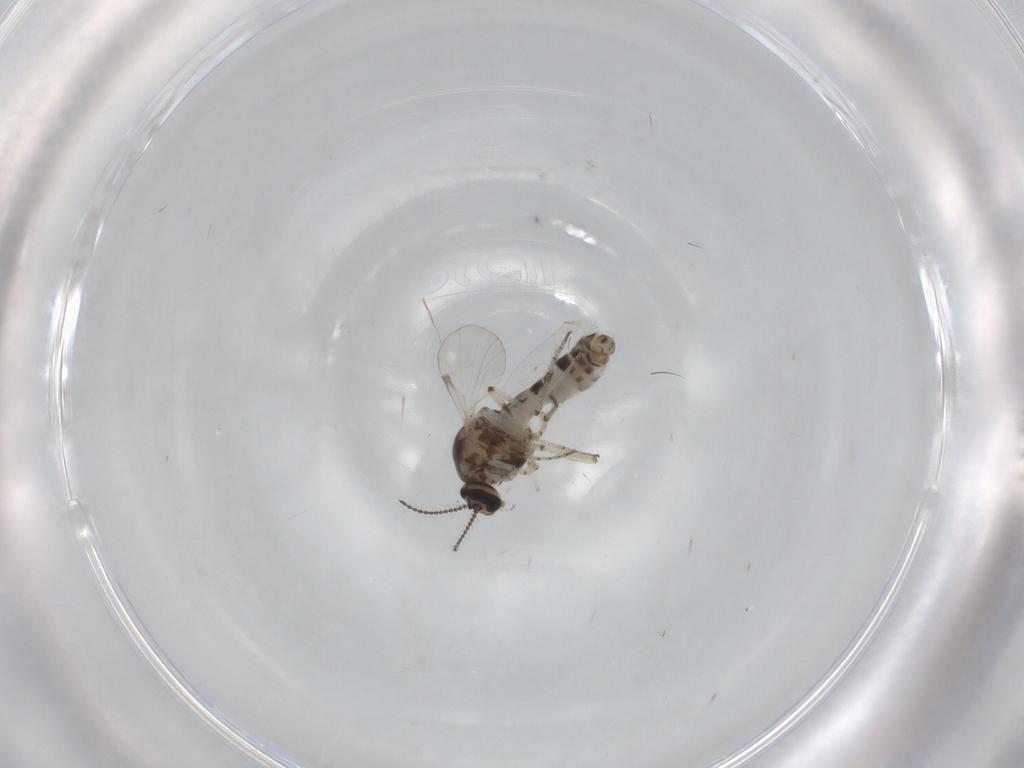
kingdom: Animalia
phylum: Arthropoda
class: Insecta
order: Diptera
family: Ceratopogonidae
